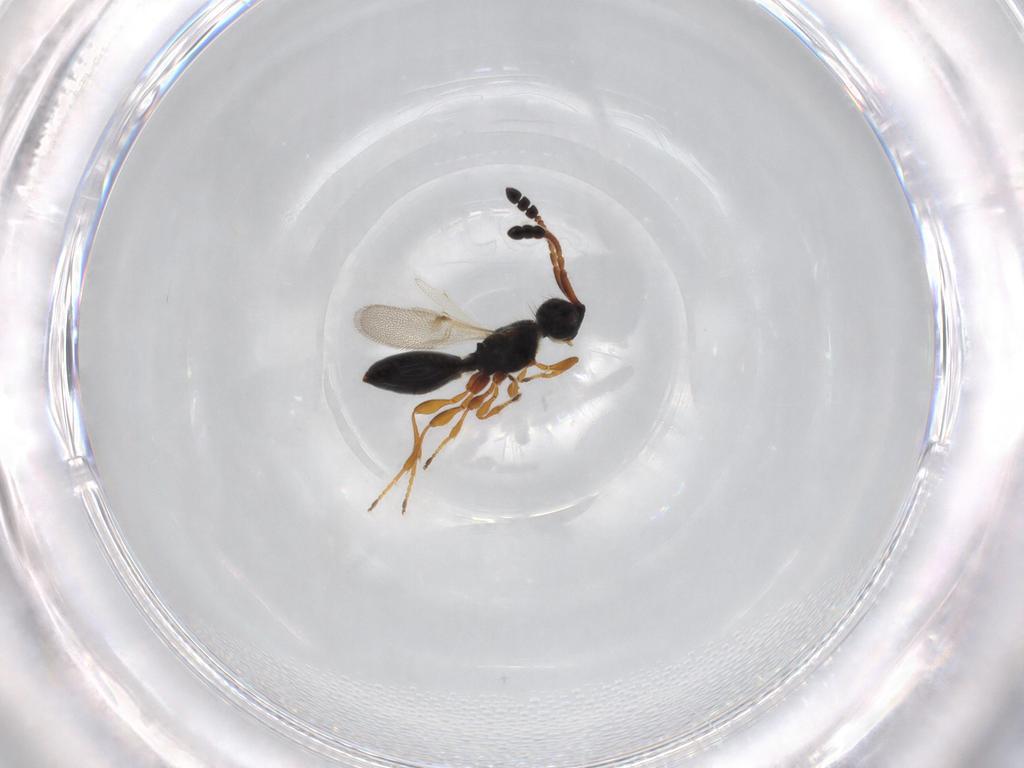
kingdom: Animalia
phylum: Arthropoda
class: Insecta
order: Hymenoptera
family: Diapriidae
